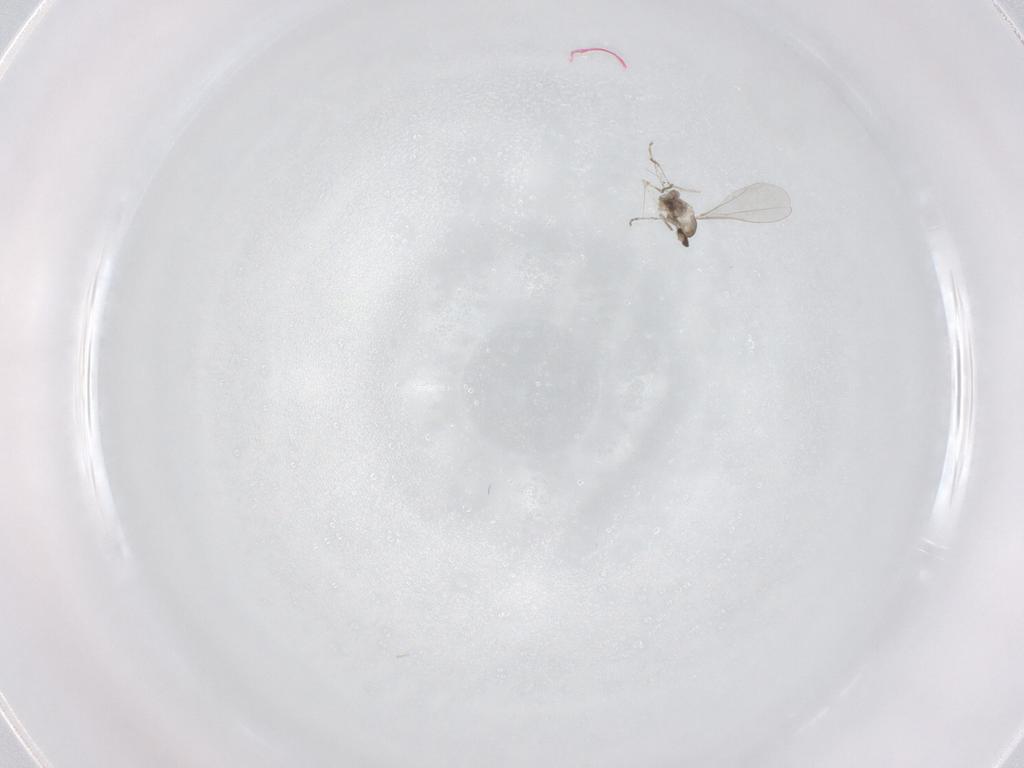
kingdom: Animalia
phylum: Arthropoda
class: Insecta
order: Diptera
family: Cecidomyiidae
